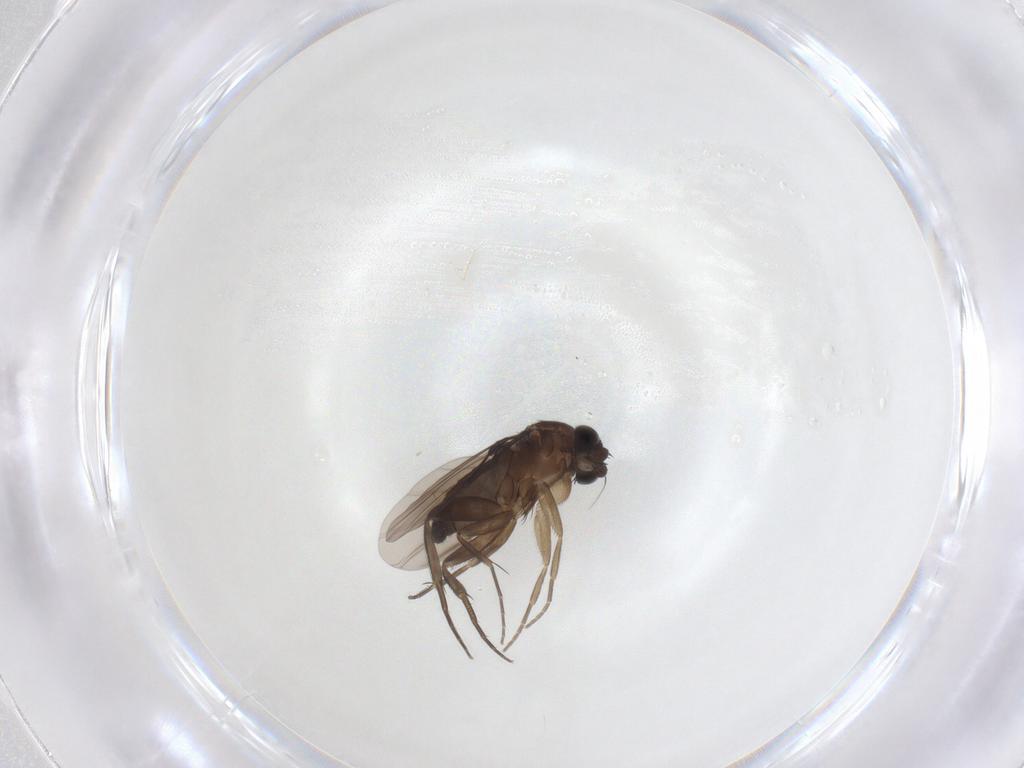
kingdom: Animalia
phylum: Arthropoda
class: Insecta
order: Diptera
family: Phoridae
